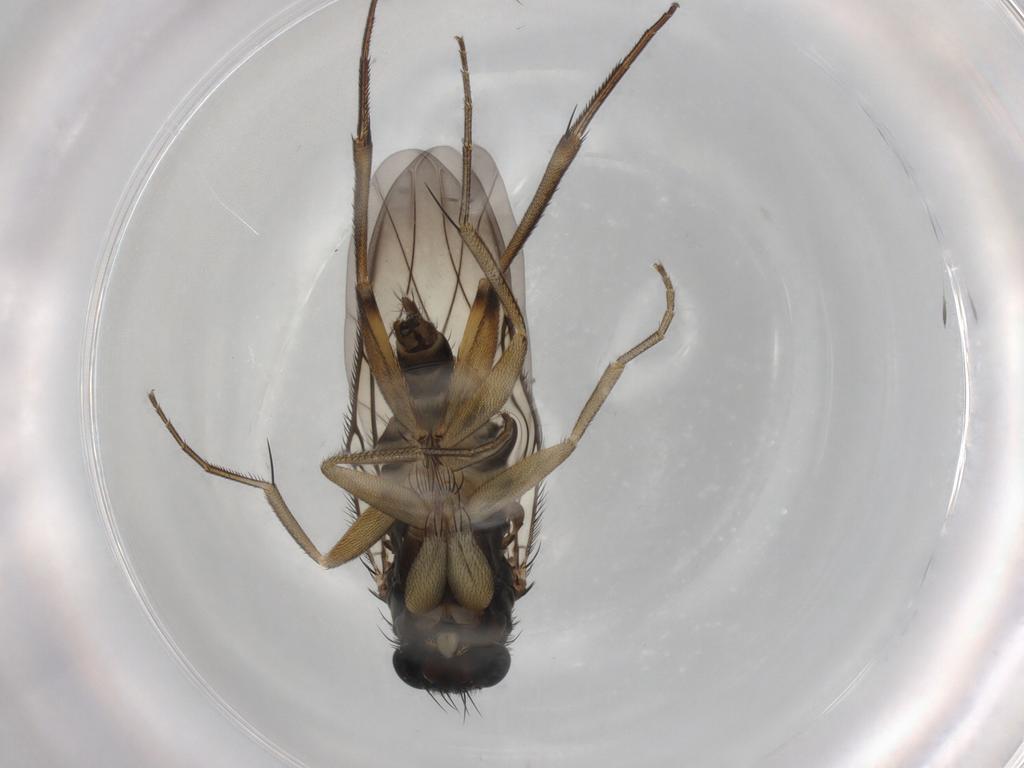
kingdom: Animalia
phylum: Arthropoda
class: Insecta
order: Diptera
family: Phoridae
